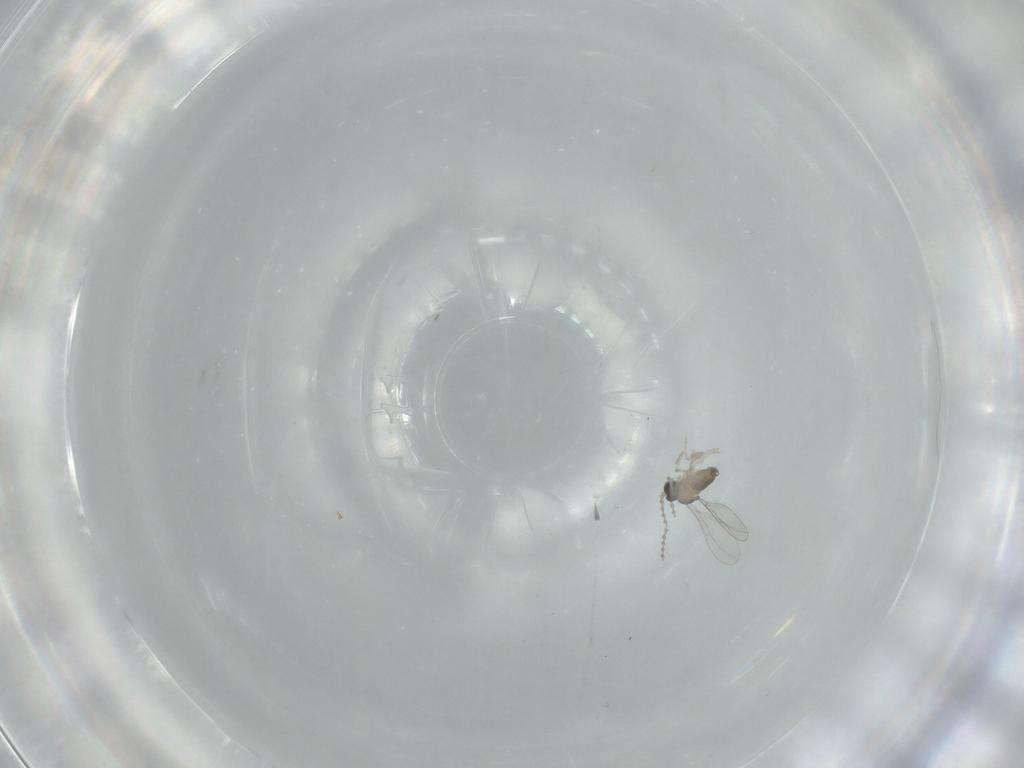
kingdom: Animalia
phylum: Arthropoda
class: Insecta
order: Diptera
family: Cecidomyiidae
